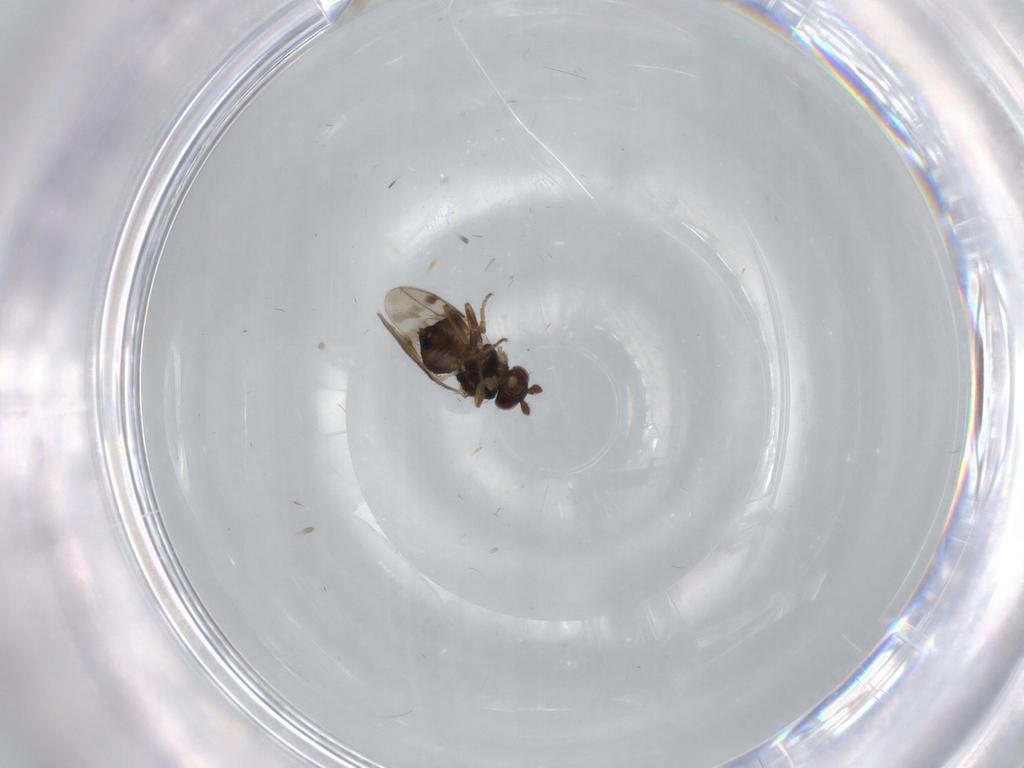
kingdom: Animalia
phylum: Arthropoda
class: Insecta
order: Diptera
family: Sphaeroceridae
